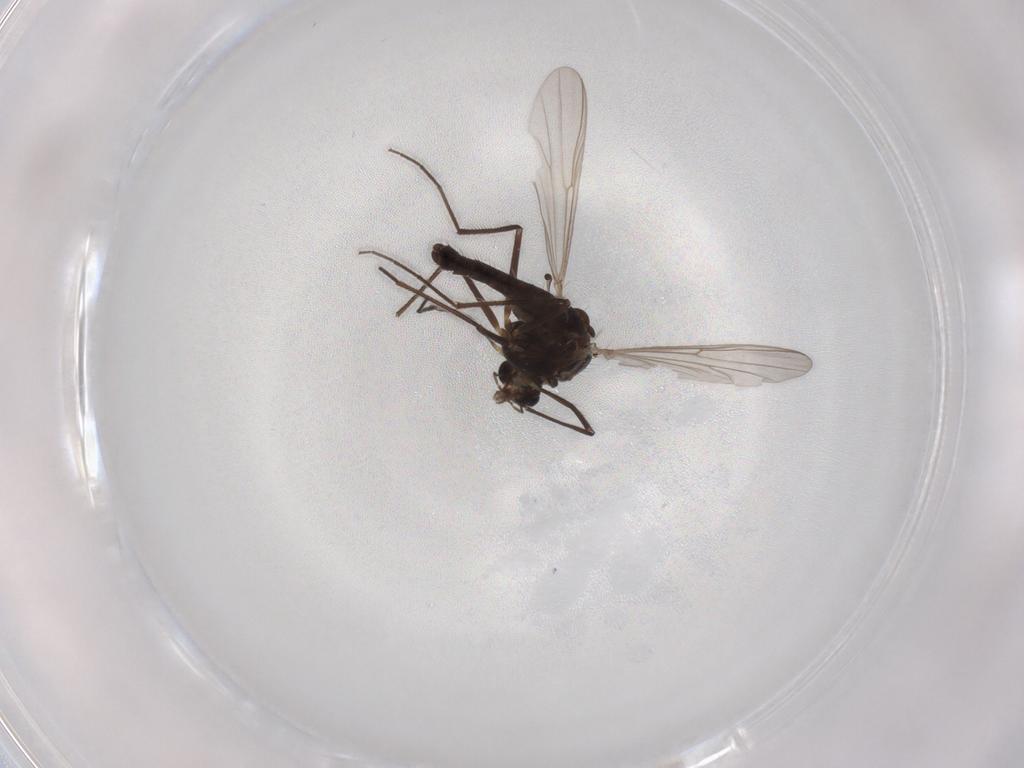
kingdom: Animalia
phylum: Arthropoda
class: Insecta
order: Diptera
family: Chironomidae
